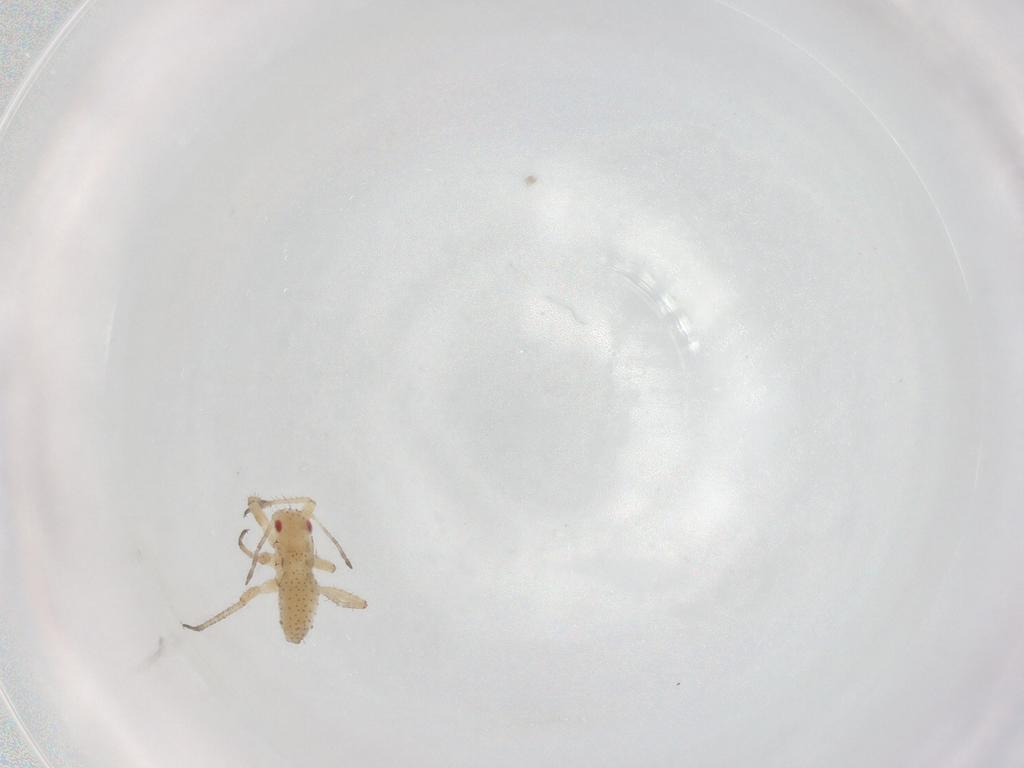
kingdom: Animalia
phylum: Arthropoda
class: Insecta
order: Hemiptera
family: Aphididae
